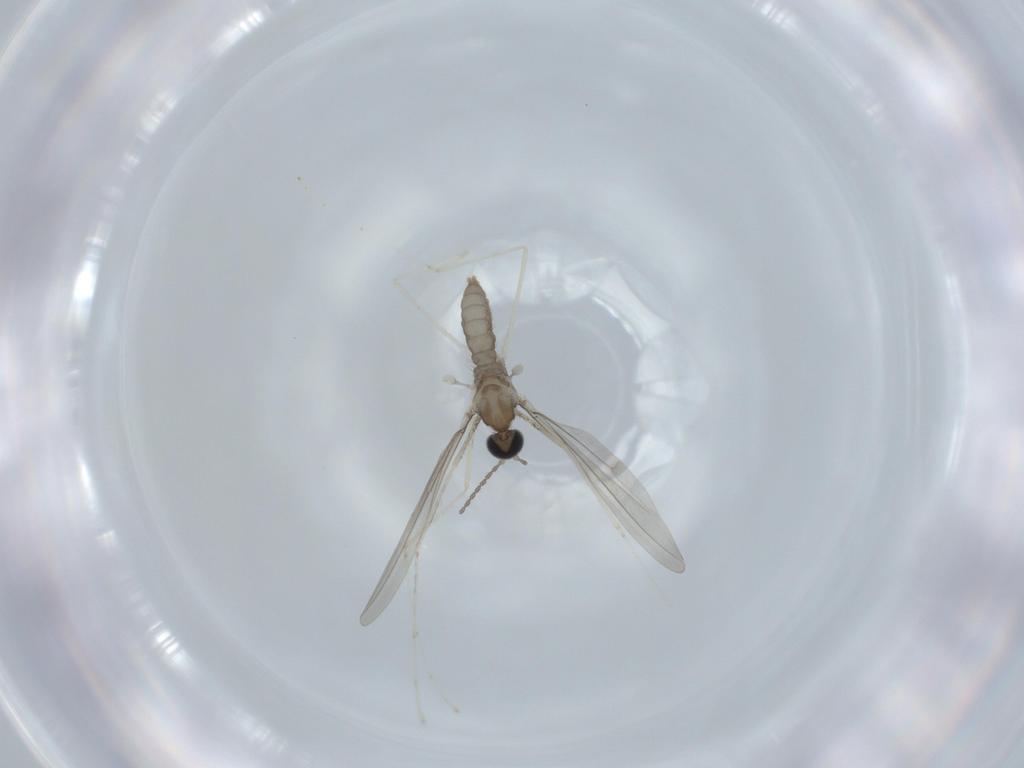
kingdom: Animalia
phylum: Arthropoda
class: Insecta
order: Diptera
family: Cecidomyiidae
